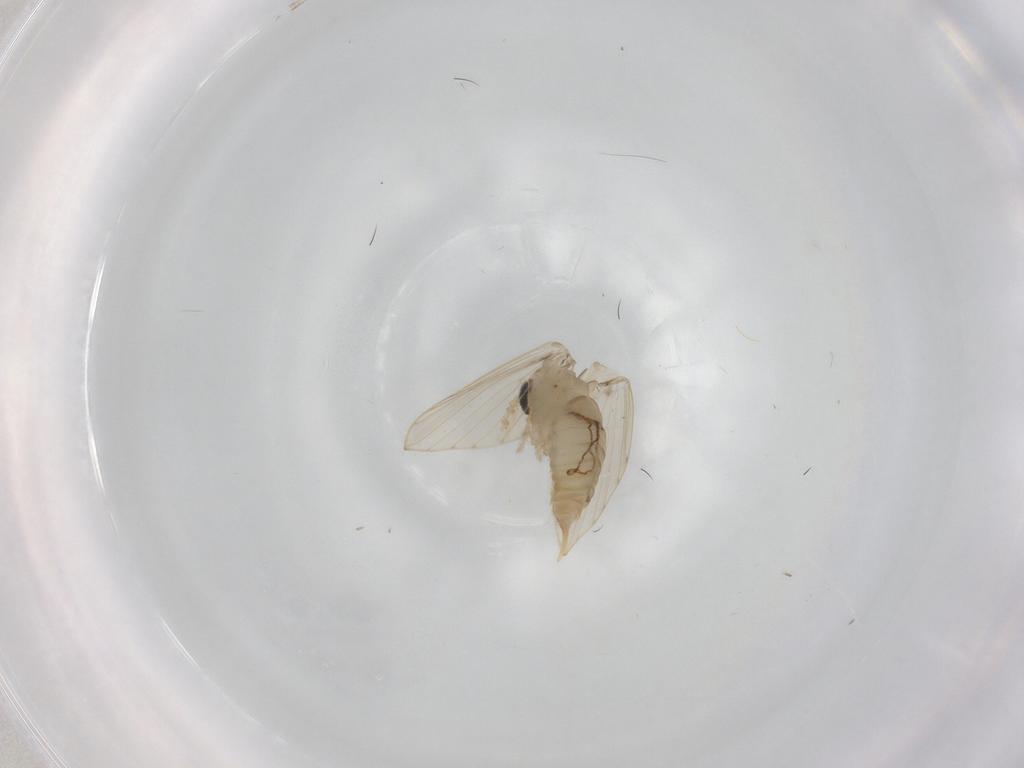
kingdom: Animalia
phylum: Arthropoda
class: Insecta
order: Diptera
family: Psychodidae
